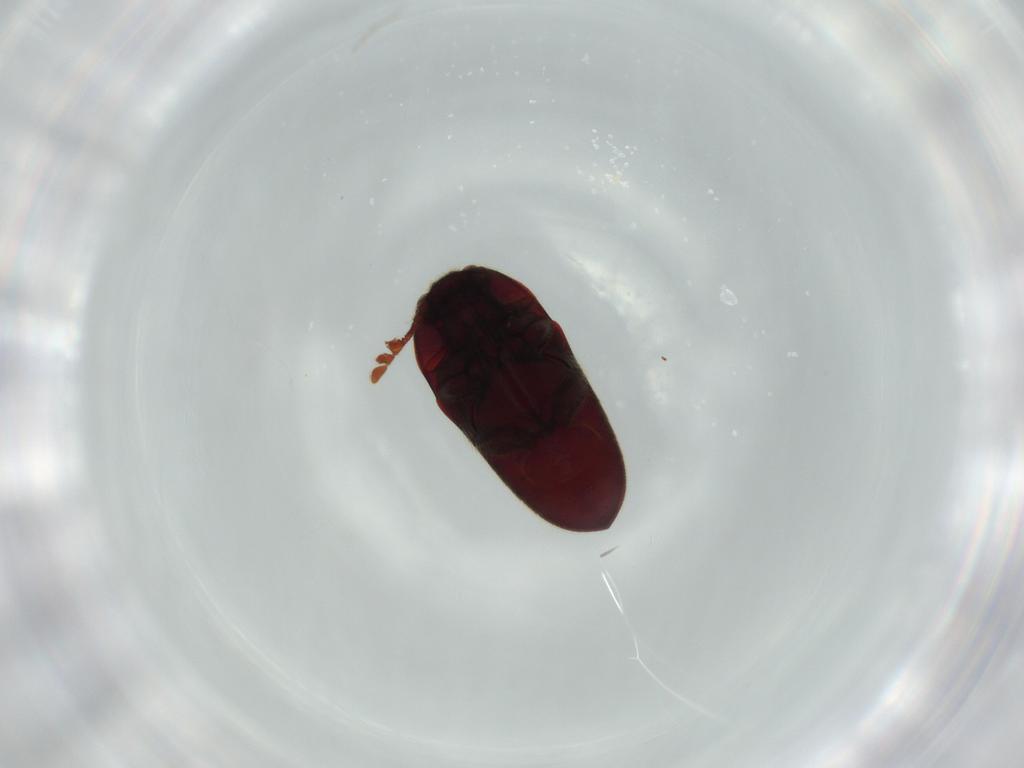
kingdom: Animalia
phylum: Arthropoda
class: Insecta
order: Coleoptera
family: Throscidae
